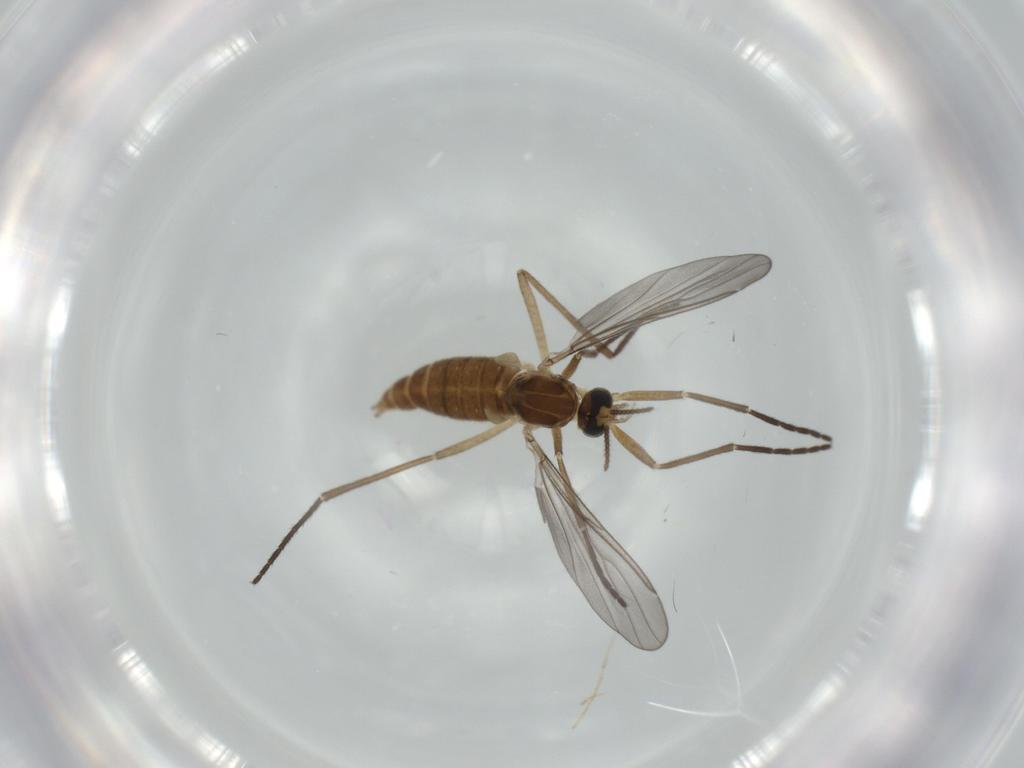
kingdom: Animalia
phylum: Arthropoda
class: Insecta
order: Diptera
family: Cecidomyiidae
